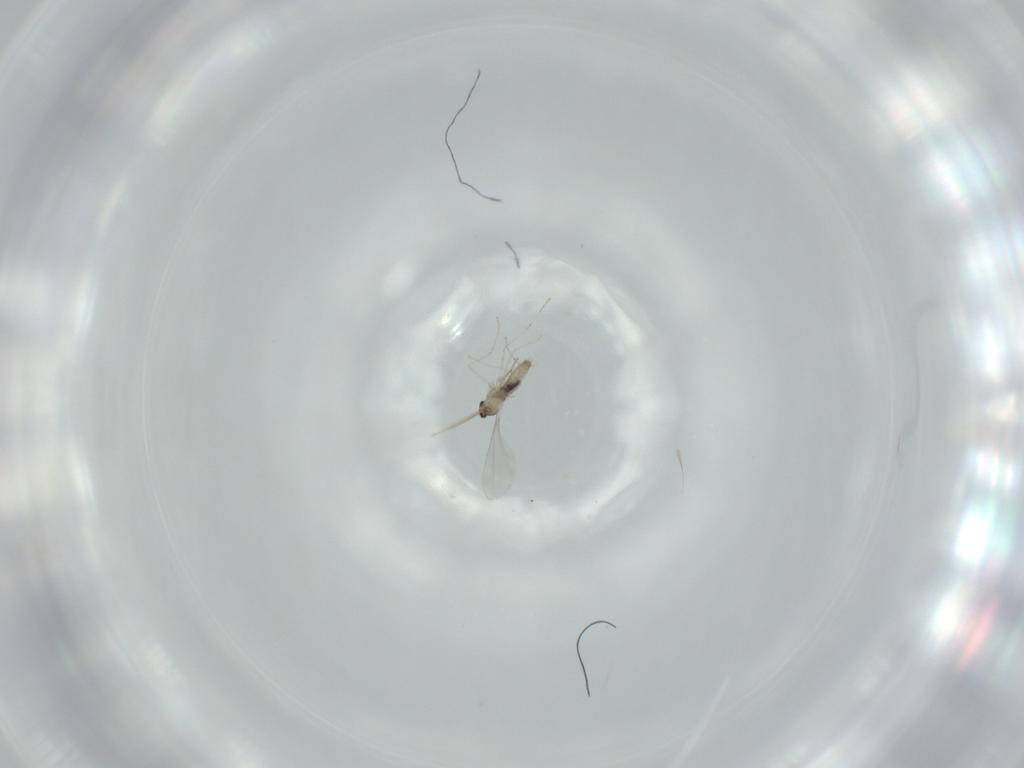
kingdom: Animalia
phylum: Arthropoda
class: Insecta
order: Diptera
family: Cecidomyiidae
